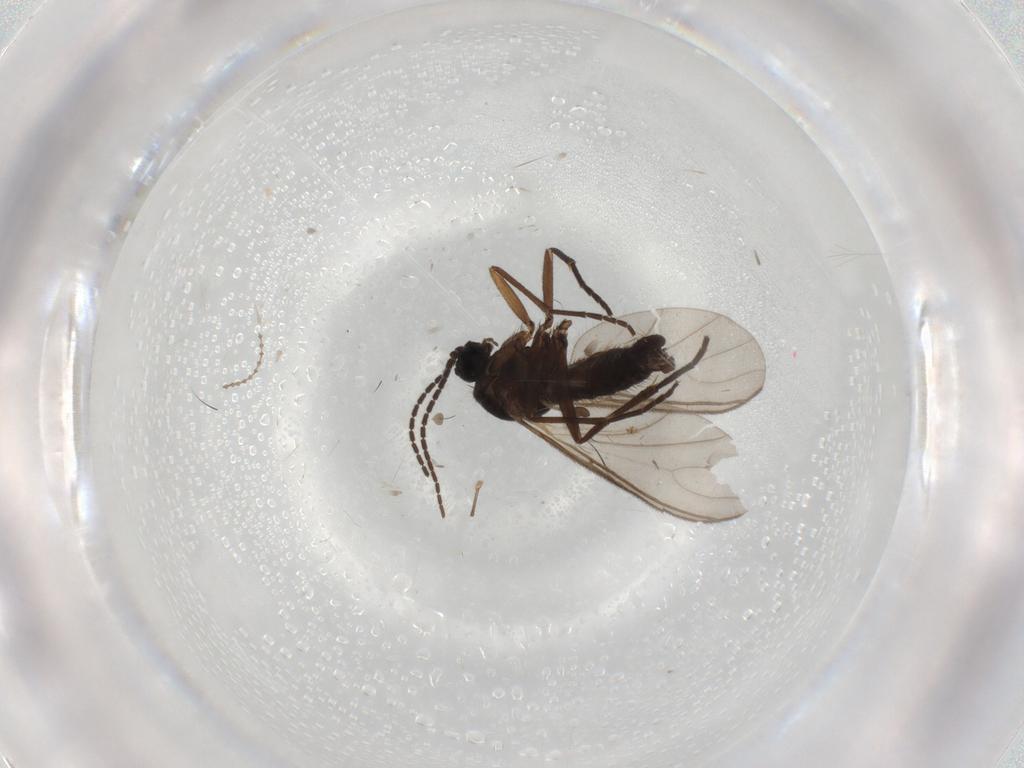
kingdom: Animalia
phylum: Arthropoda
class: Insecta
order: Diptera
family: Sciaridae
